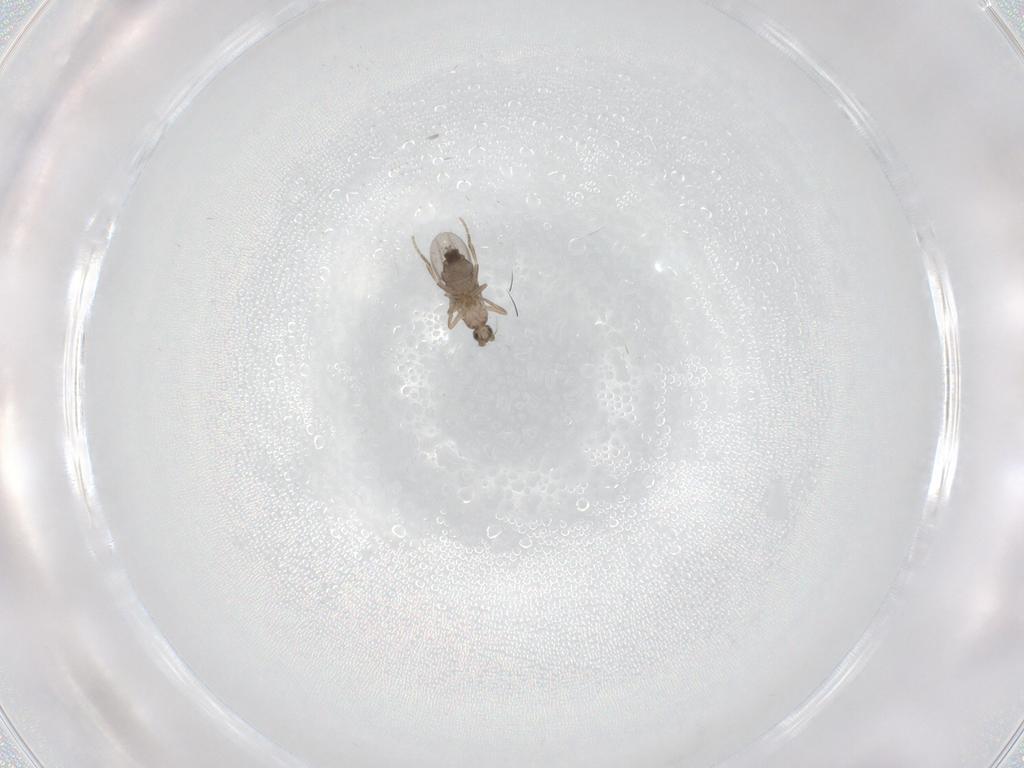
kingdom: Animalia
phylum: Arthropoda
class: Insecta
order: Diptera
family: Phoridae
